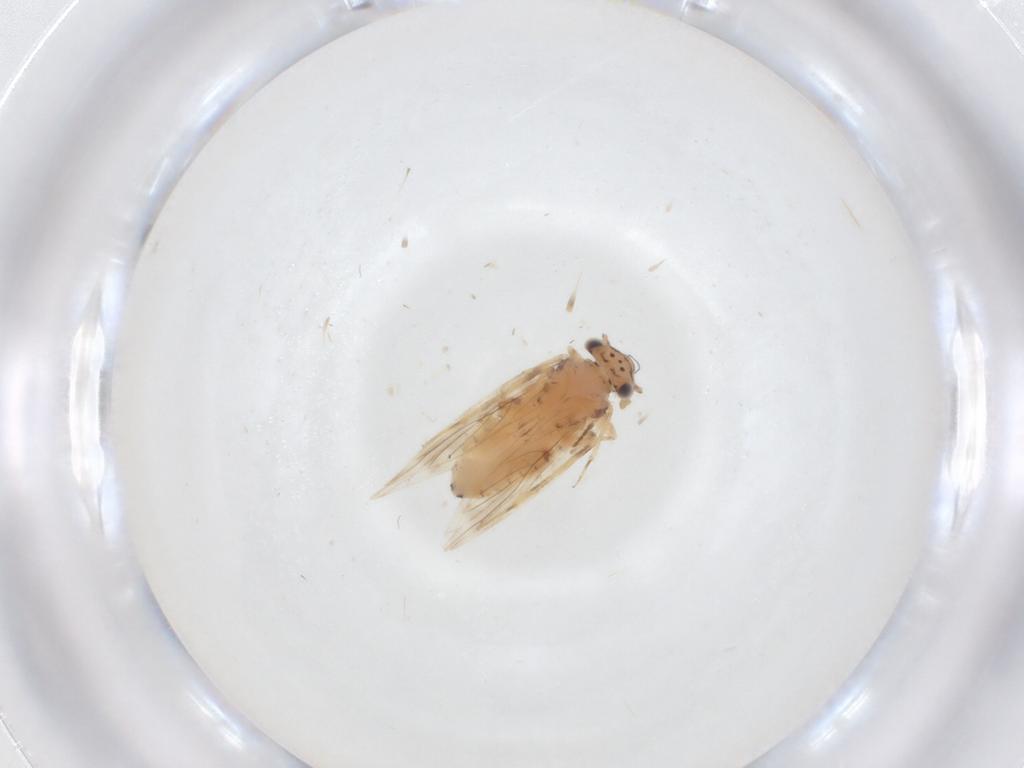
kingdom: Animalia
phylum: Arthropoda
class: Insecta
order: Psocodea
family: Lepidopsocidae
